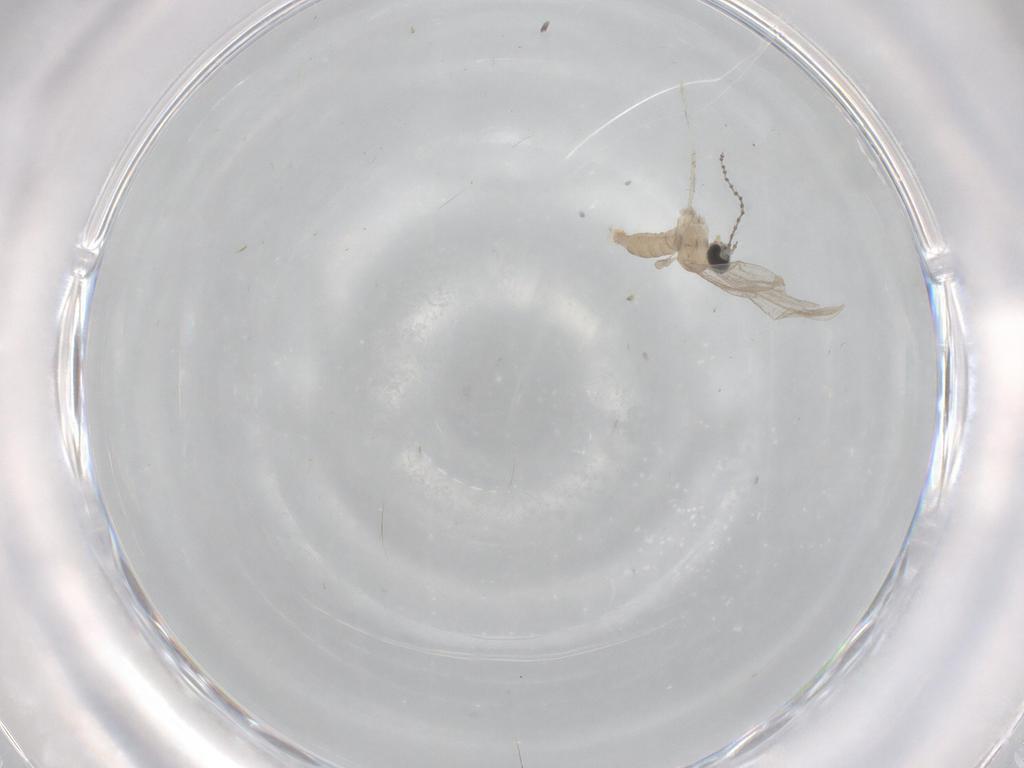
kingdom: Animalia
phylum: Arthropoda
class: Insecta
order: Diptera
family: Cecidomyiidae
